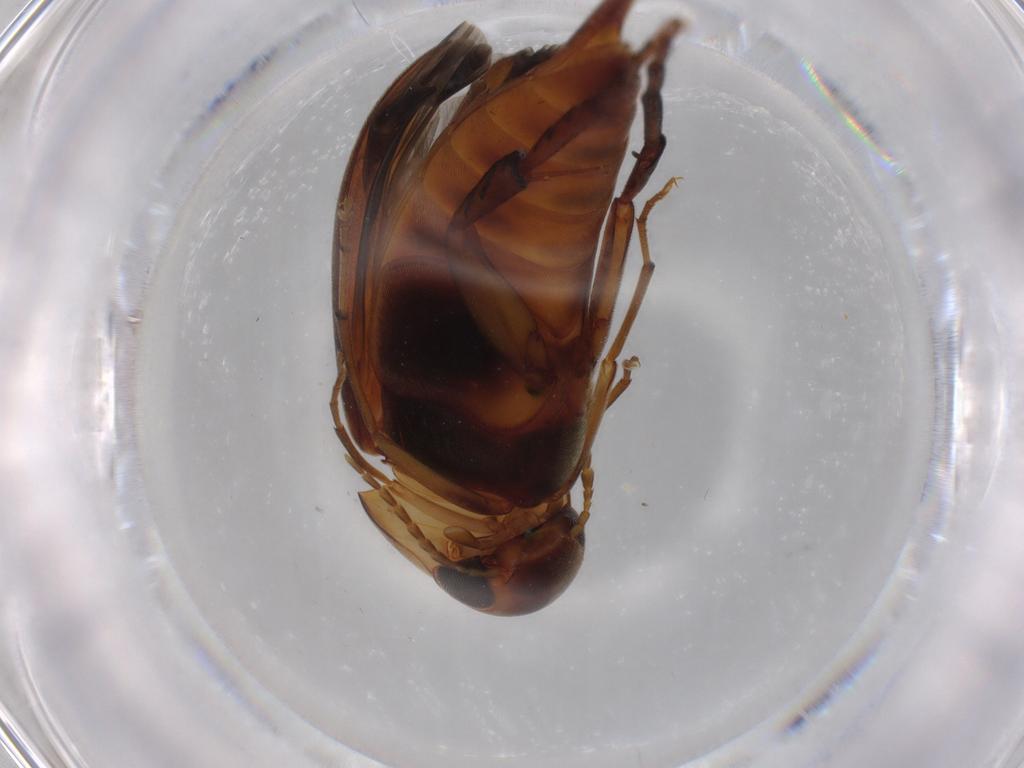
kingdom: Animalia
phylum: Arthropoda
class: Insecta
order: Coleoptera
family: Mordellidae
